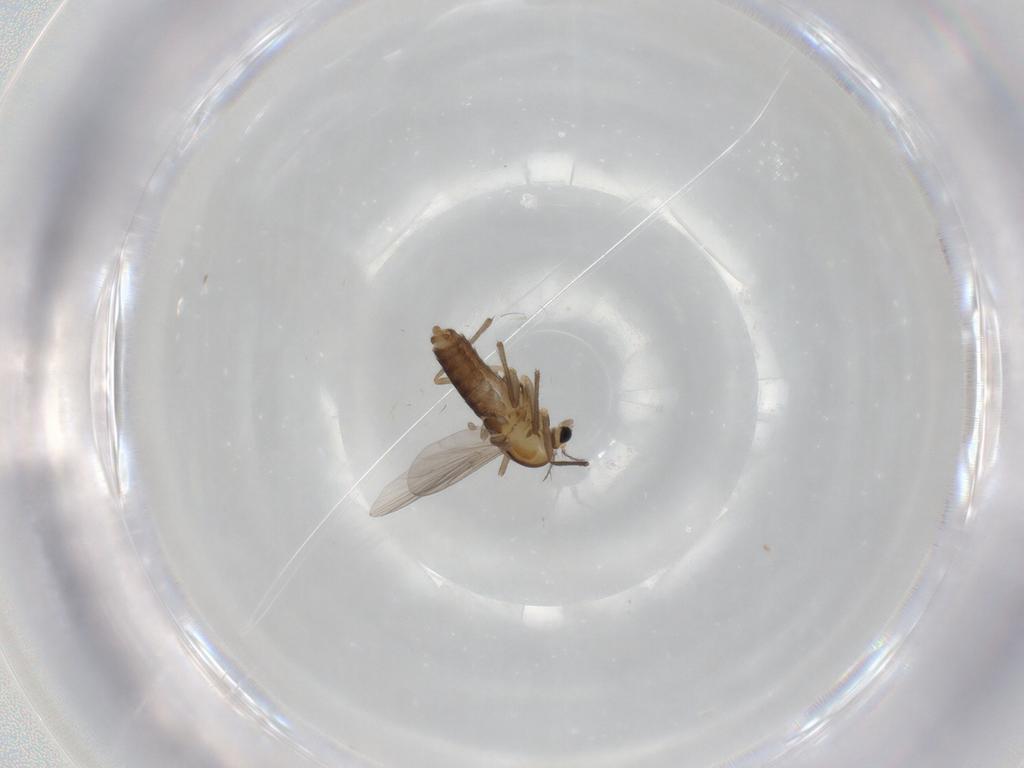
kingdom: Animalia
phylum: Arthropoda
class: Insecta
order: Diptera
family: Chironomidae
